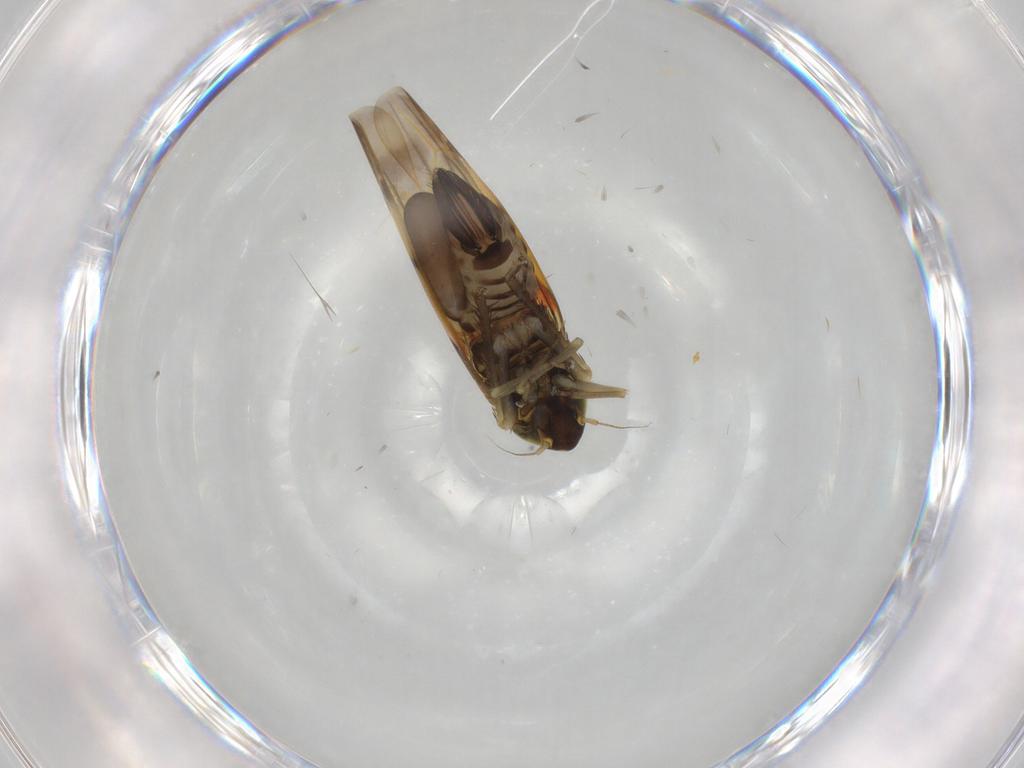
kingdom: Animalia
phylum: Arthropoda
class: Insecta
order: Hemiptera
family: Cicadellidae
